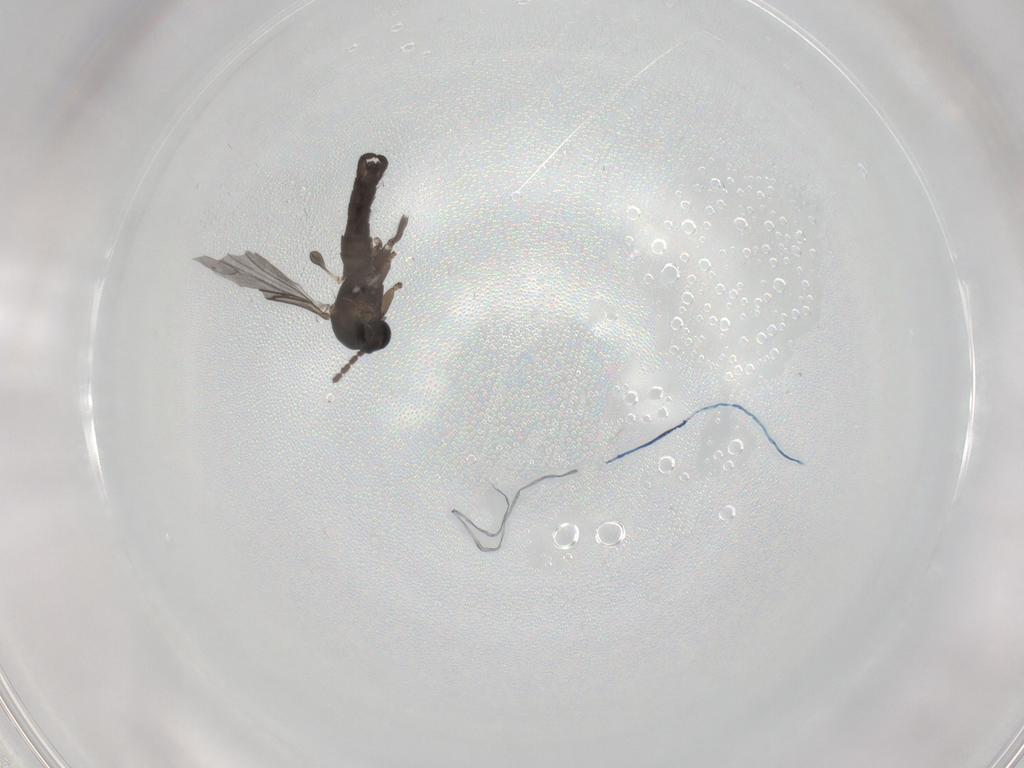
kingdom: Animalia
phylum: Arthropoda
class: Insecta
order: Diptera
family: Sciaridae
